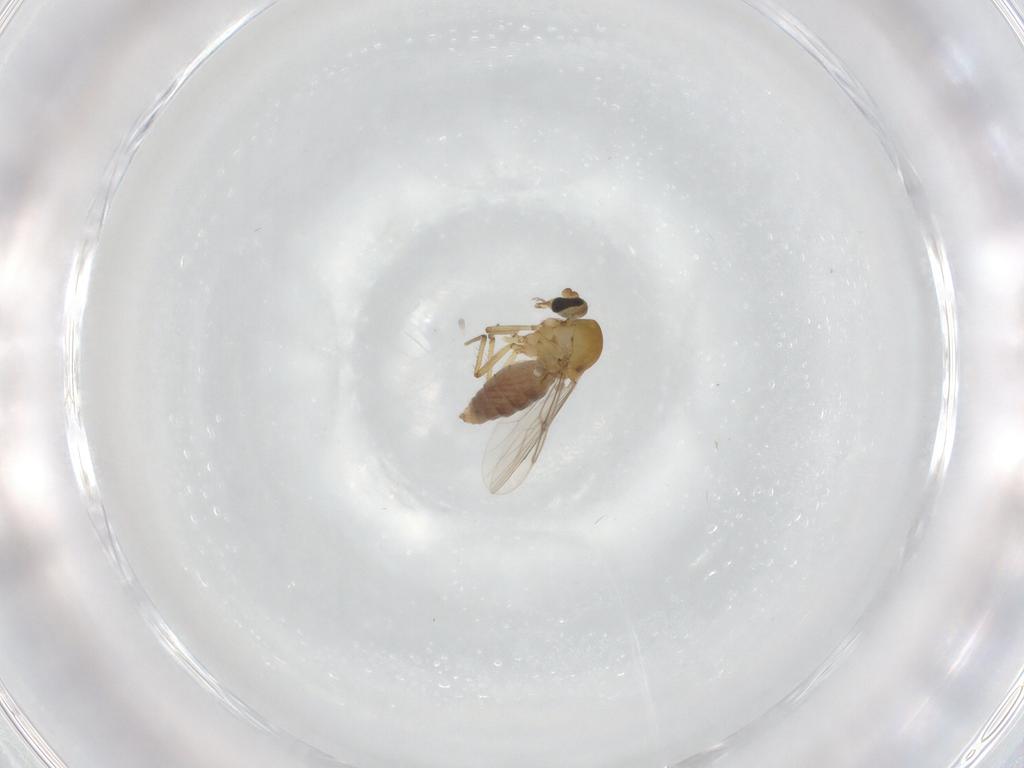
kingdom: Animalia
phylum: Arthropoda
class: Insecta
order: Diptera
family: Ceratopogonidae
